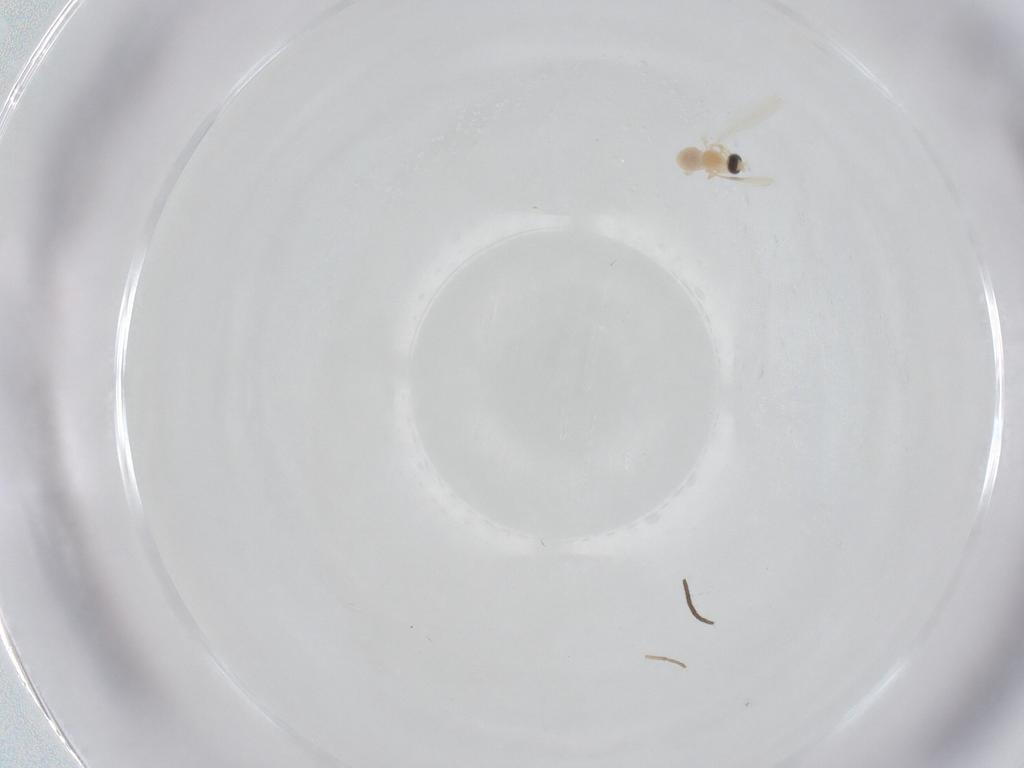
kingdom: Animalia
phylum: Arthropoda
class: Insecta
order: Diptera
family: Cecidomyiidae
